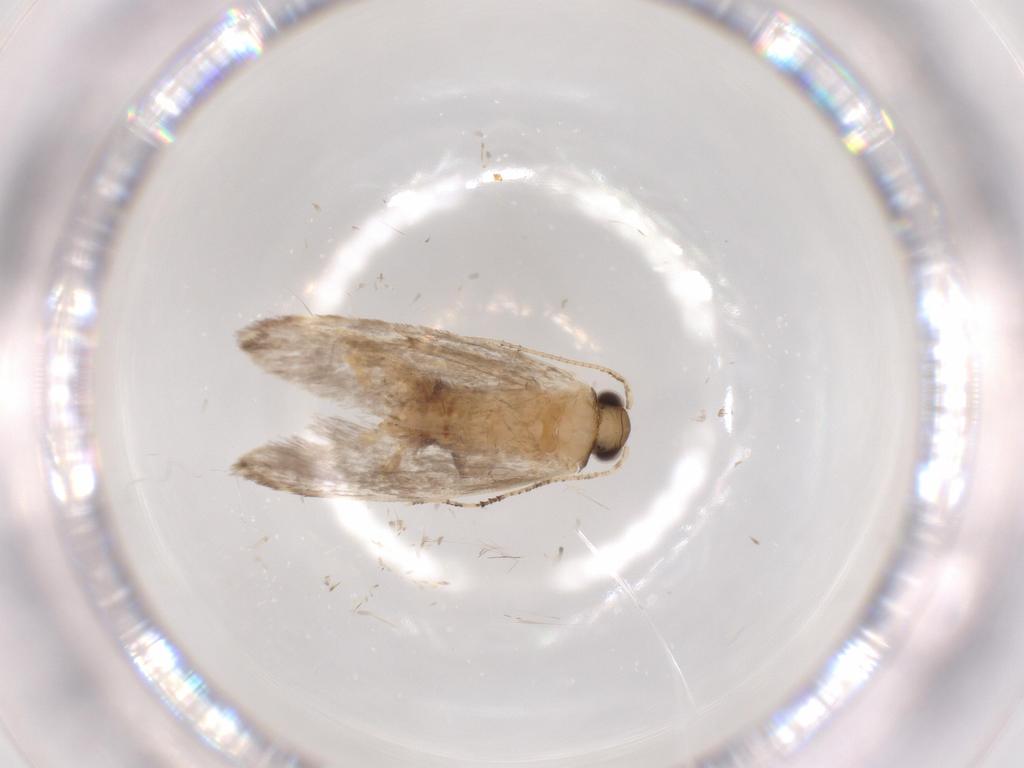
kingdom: Animalia
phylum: Arthropoda
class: Insecta
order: Lepidoptera
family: Tineidae
